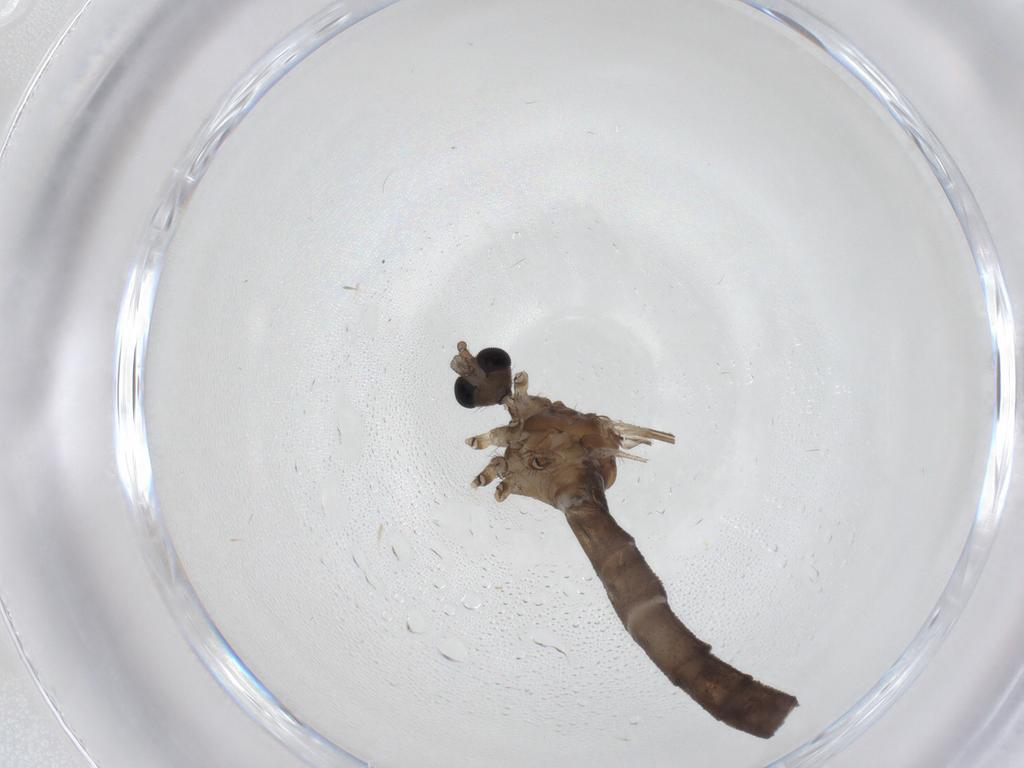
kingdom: Animalia
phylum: Arthropoda
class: Insecta
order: Diptera
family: Limoniidae
